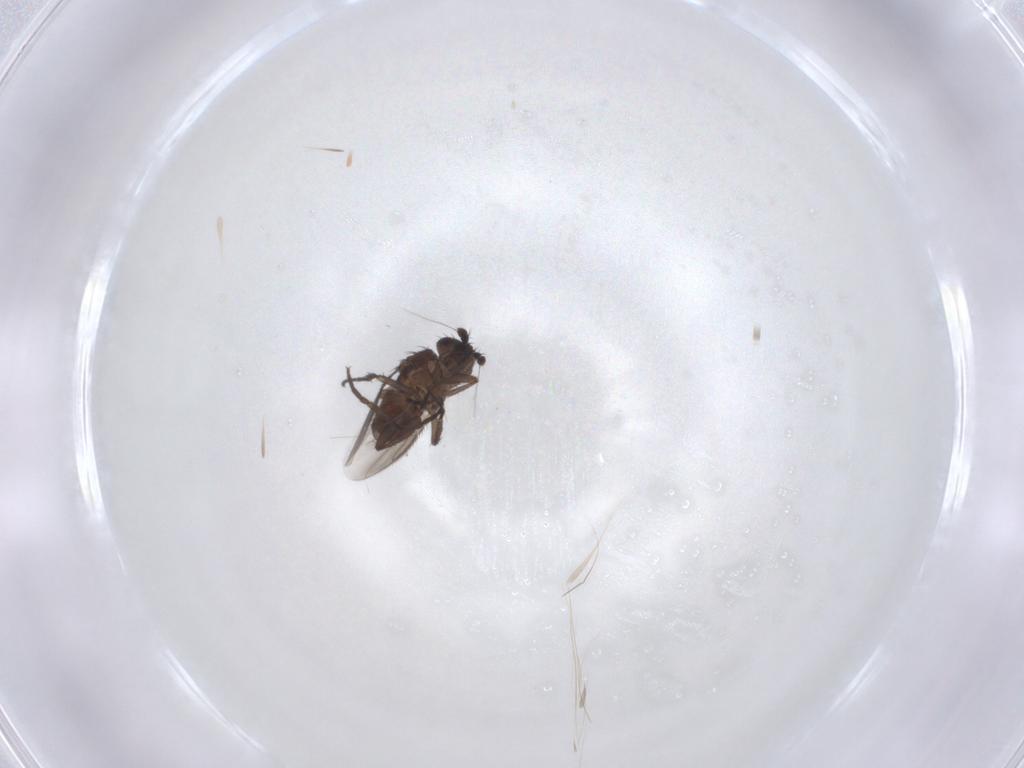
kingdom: Animalia
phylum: Arthropoda
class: Insecta
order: Diptera
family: Sphaeroceridae
